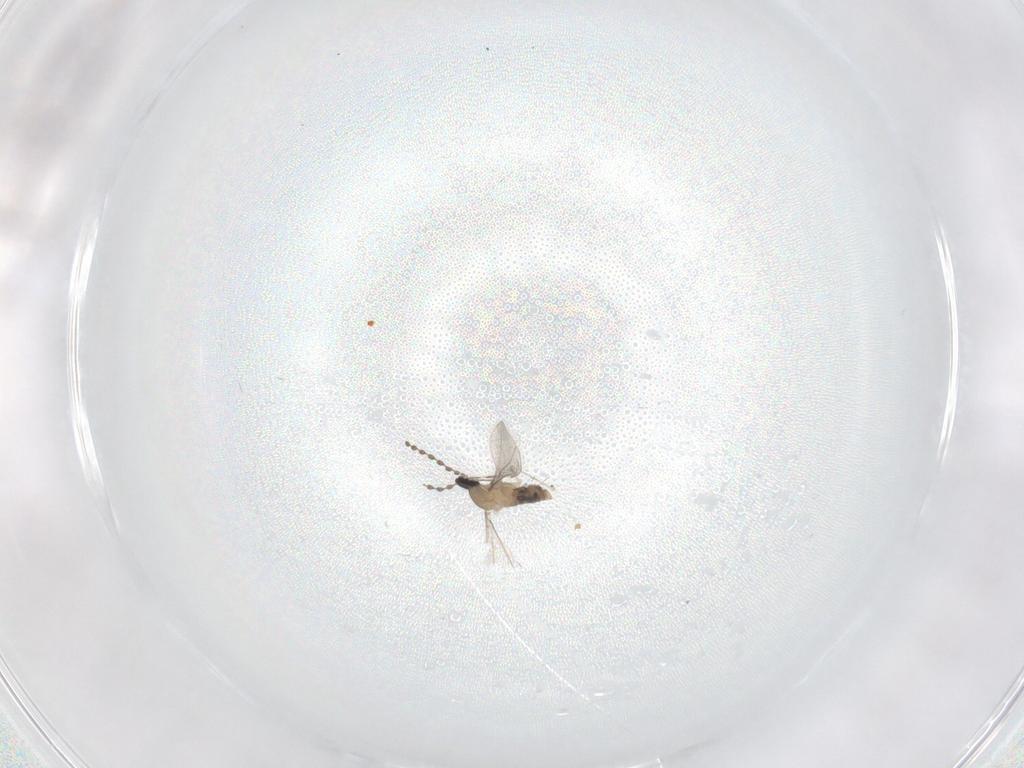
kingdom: Animalia
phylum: Arthropoda
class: Insecta
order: Diptera
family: Cecidomyiidae
